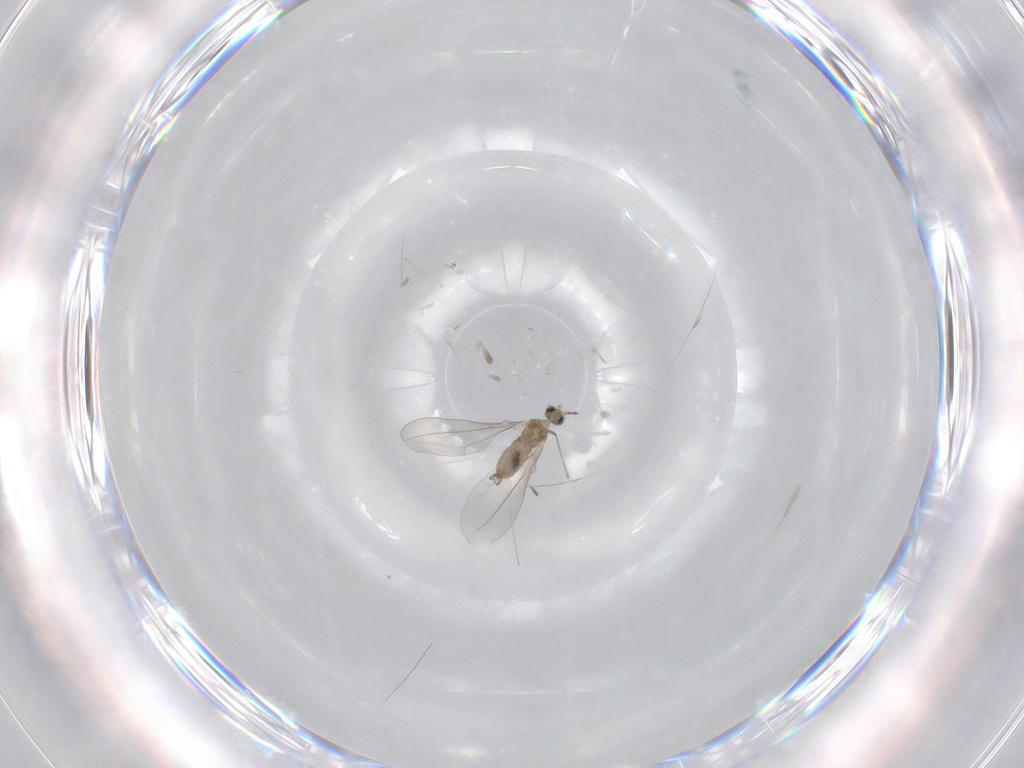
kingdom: Animalia
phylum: Arthropoda
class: Insecta
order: Diptera
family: Cecidomyiidae
